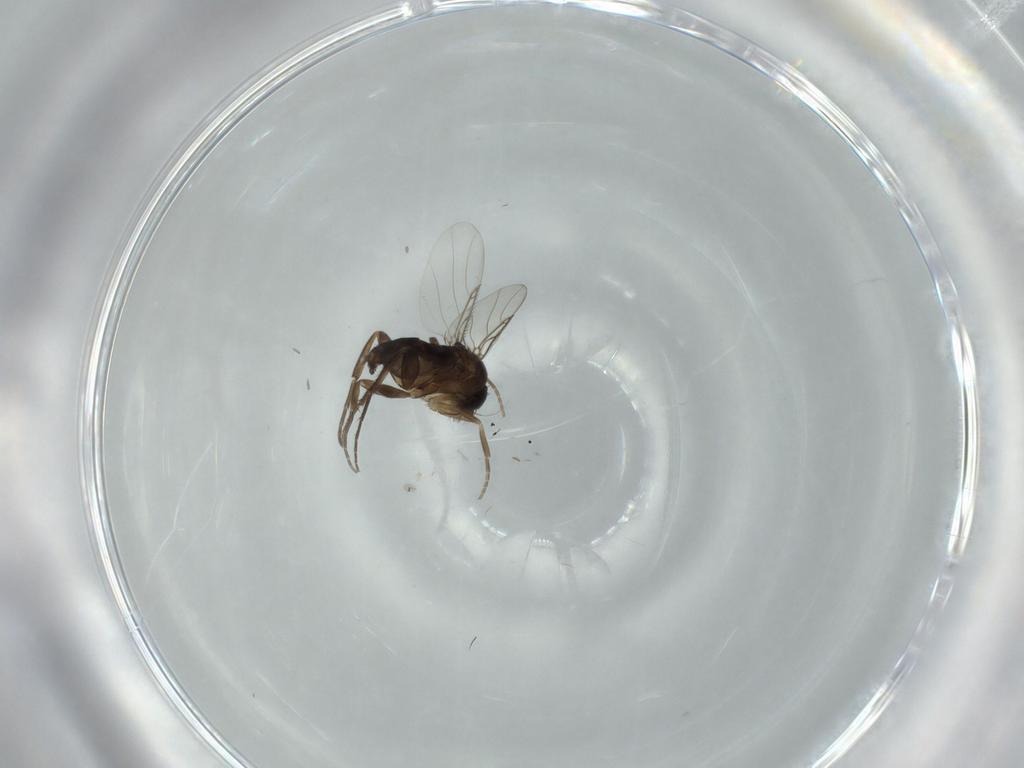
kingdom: Animalia
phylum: Arthropoda
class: Insecta
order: Diptera
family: Phoridae
